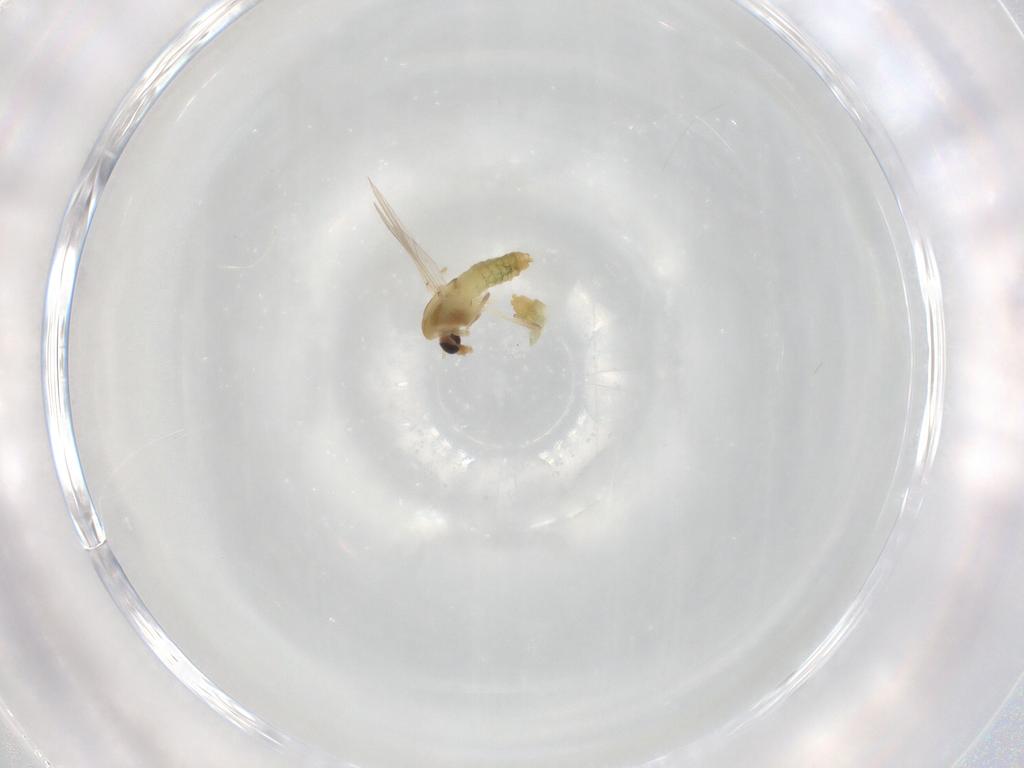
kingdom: Animalia
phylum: Arthropoda
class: Insecta
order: Diptera
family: Chironomidae
